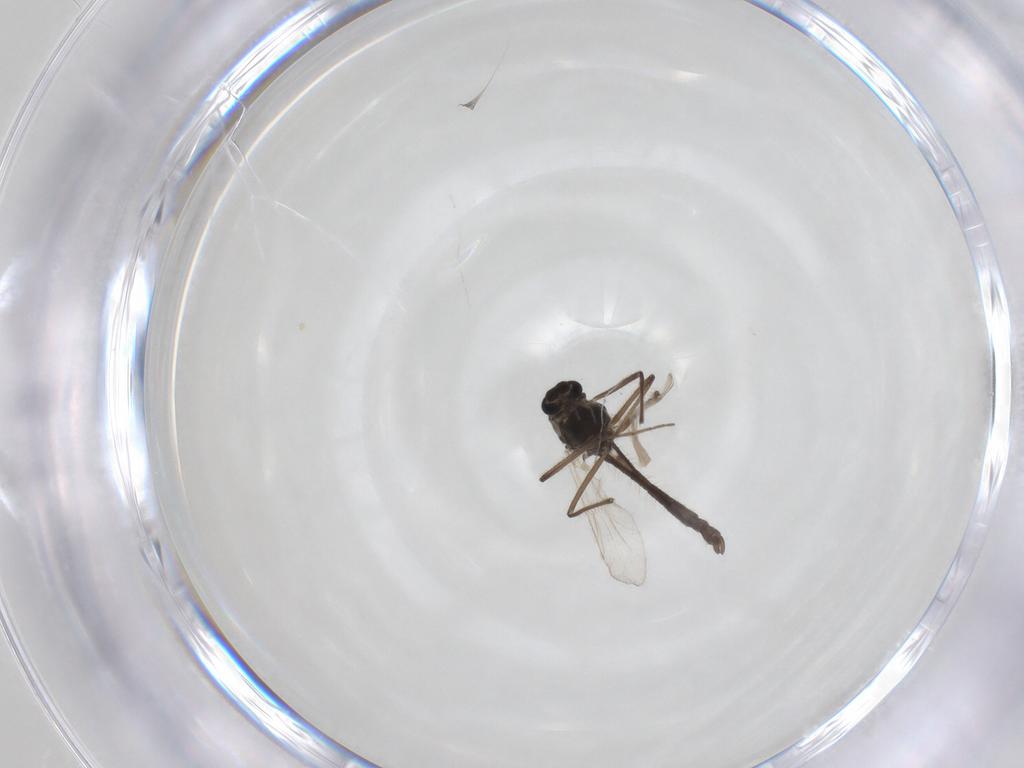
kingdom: Animalia
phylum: Arthropoda
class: Insecta
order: Diptera
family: Chironomidae
